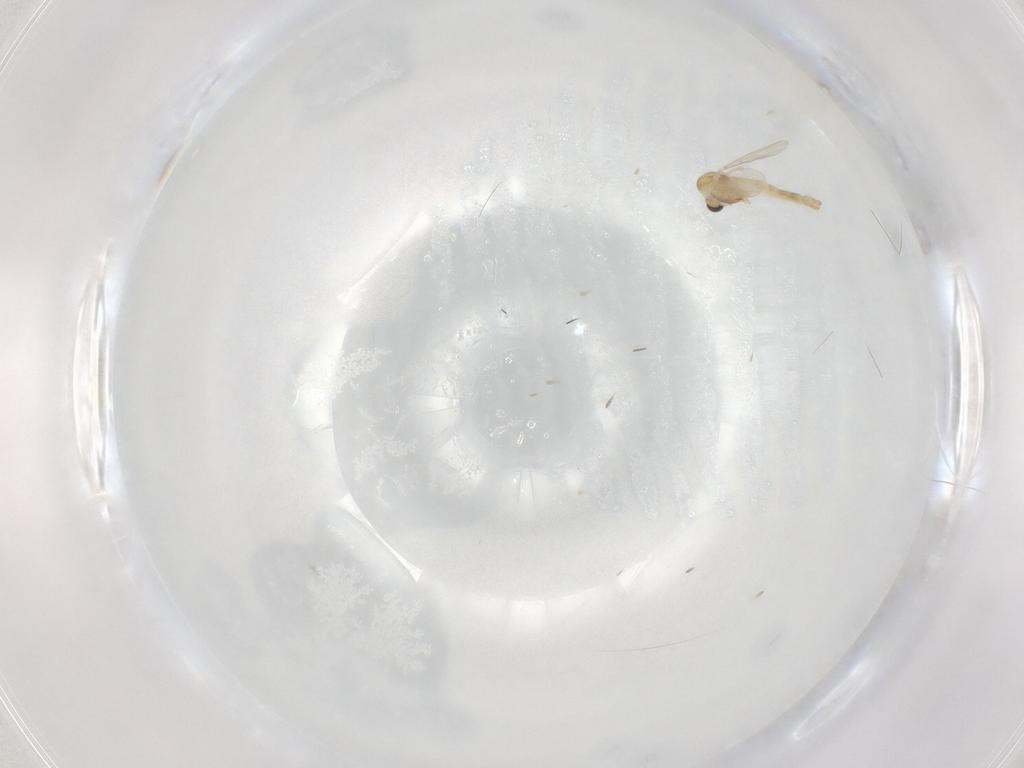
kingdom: Animalia
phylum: Arthropoda
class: Insecta
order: Diptera
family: Chironomidae
